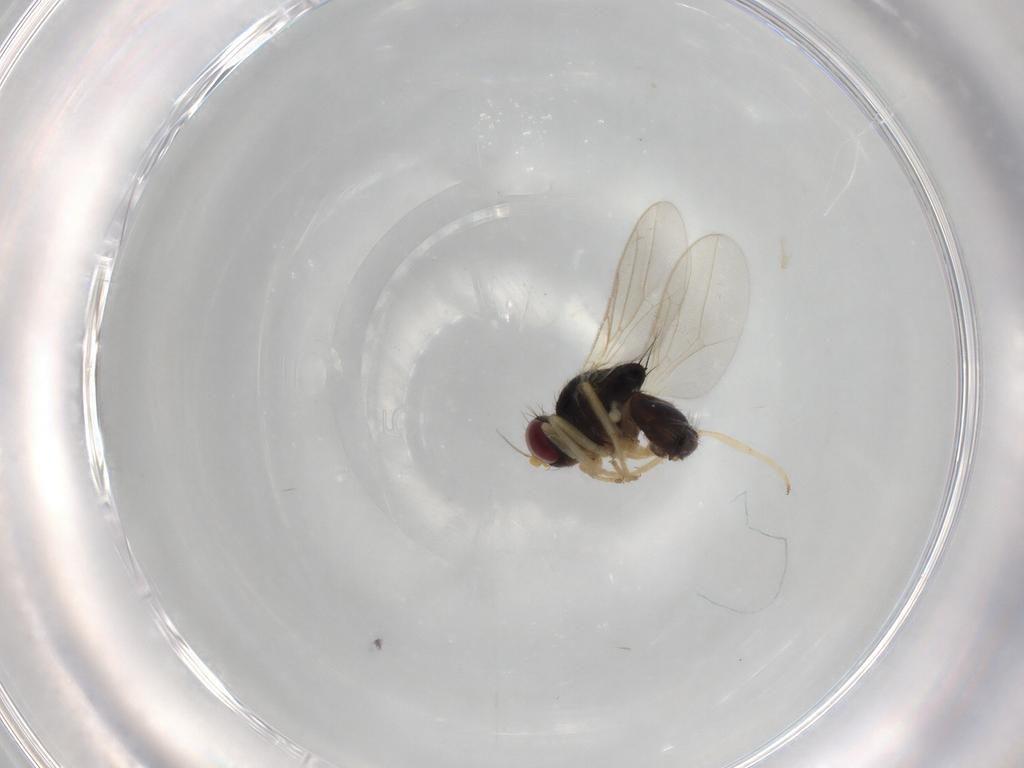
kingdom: Animalia
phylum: Arthropoda
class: Insecta
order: Diptera
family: Chloropidae
